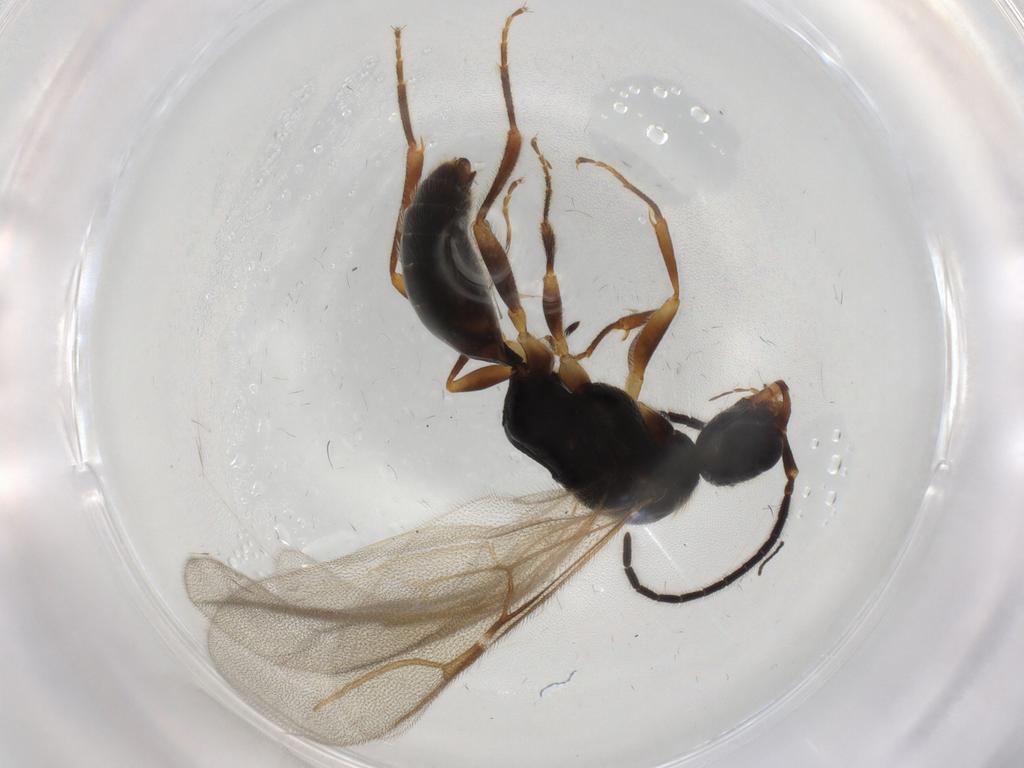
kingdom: Animalia
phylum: Arthropoda
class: Insecta
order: Hymenoptera
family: Bethylidae
